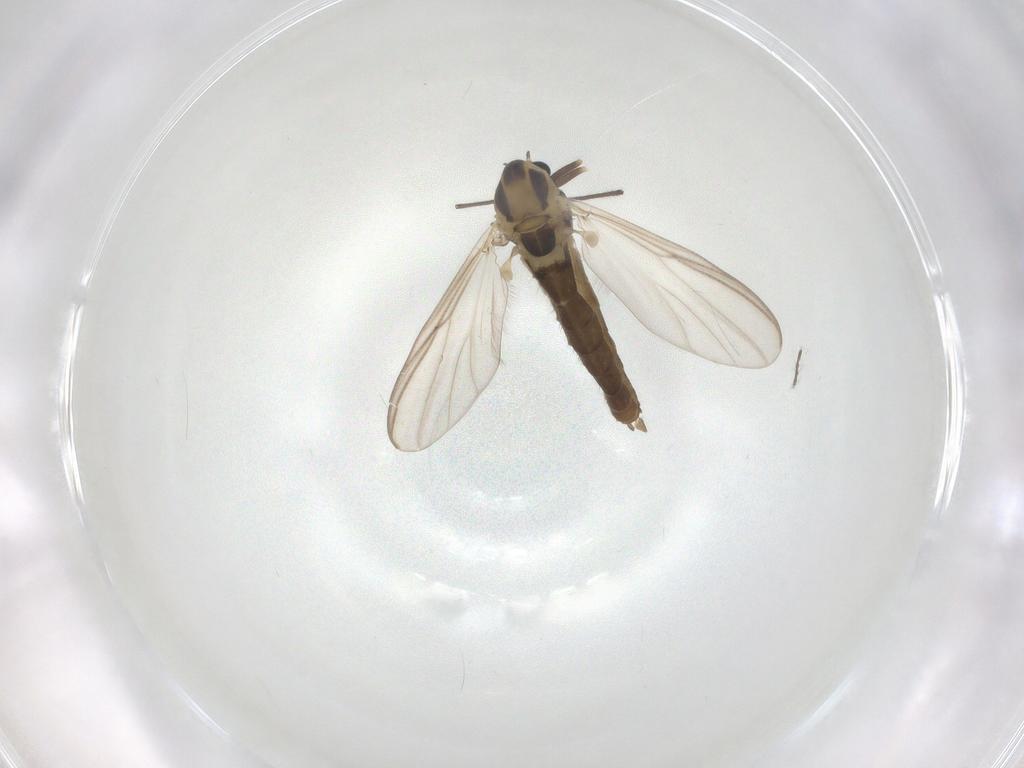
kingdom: Animalia
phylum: Arthropoda
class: Insecta
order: Diptera
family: Chironomidae
